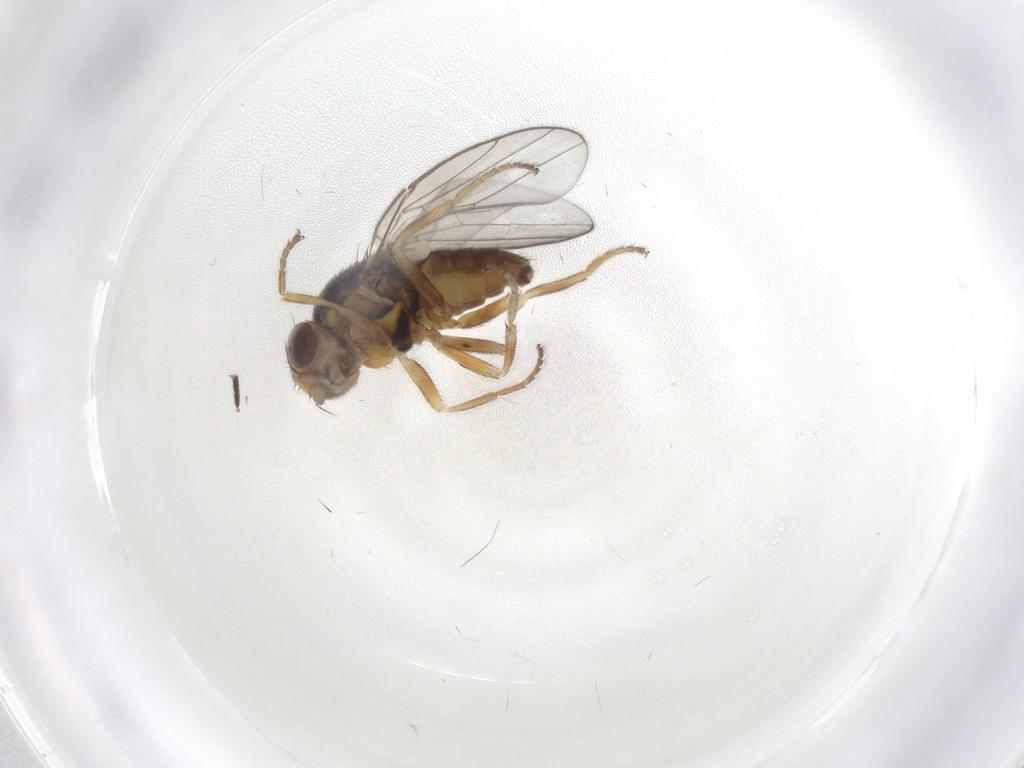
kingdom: Animalia
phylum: Arthropoda
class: Insecta
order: Diptera
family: Chloropidae
